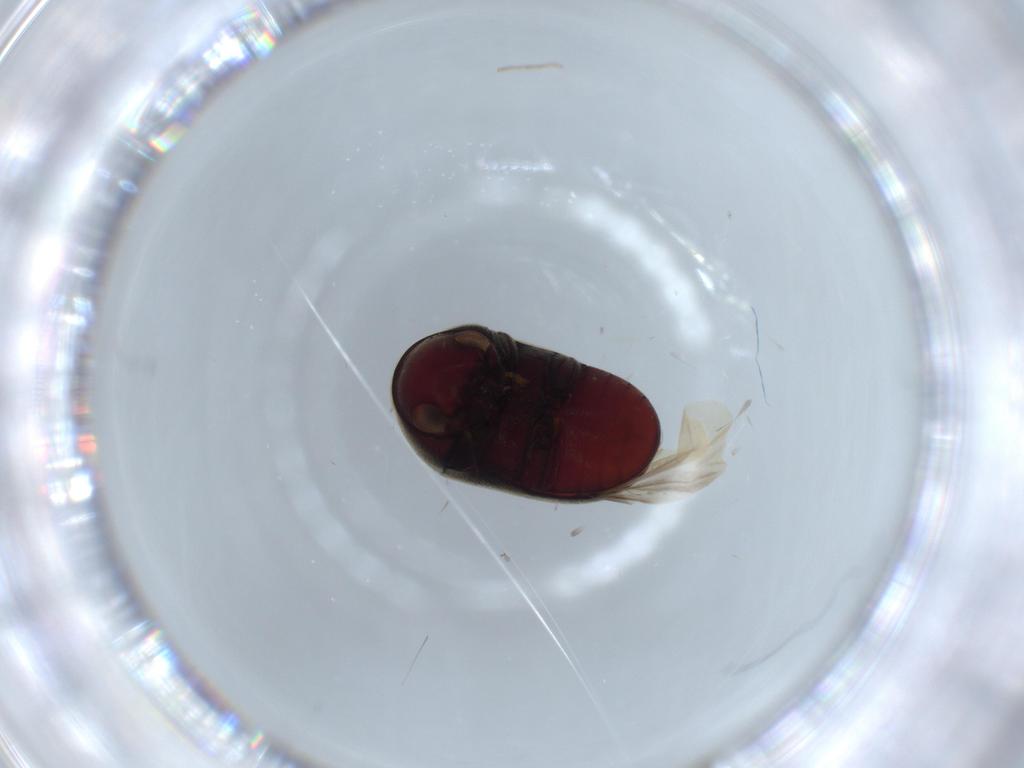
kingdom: Animalia
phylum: Arthropoda
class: Insecta
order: Coleoptera
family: Ptinidae
